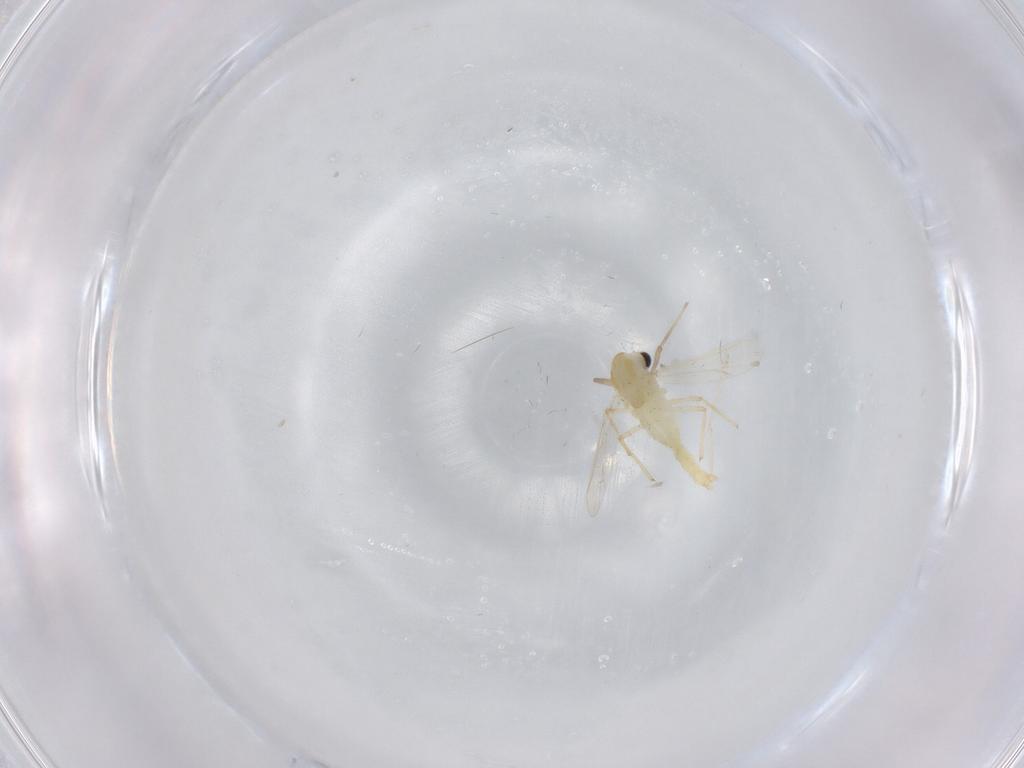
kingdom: Animalia
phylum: Arthropoda
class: Insecta
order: Diptera
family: Chironomidae
